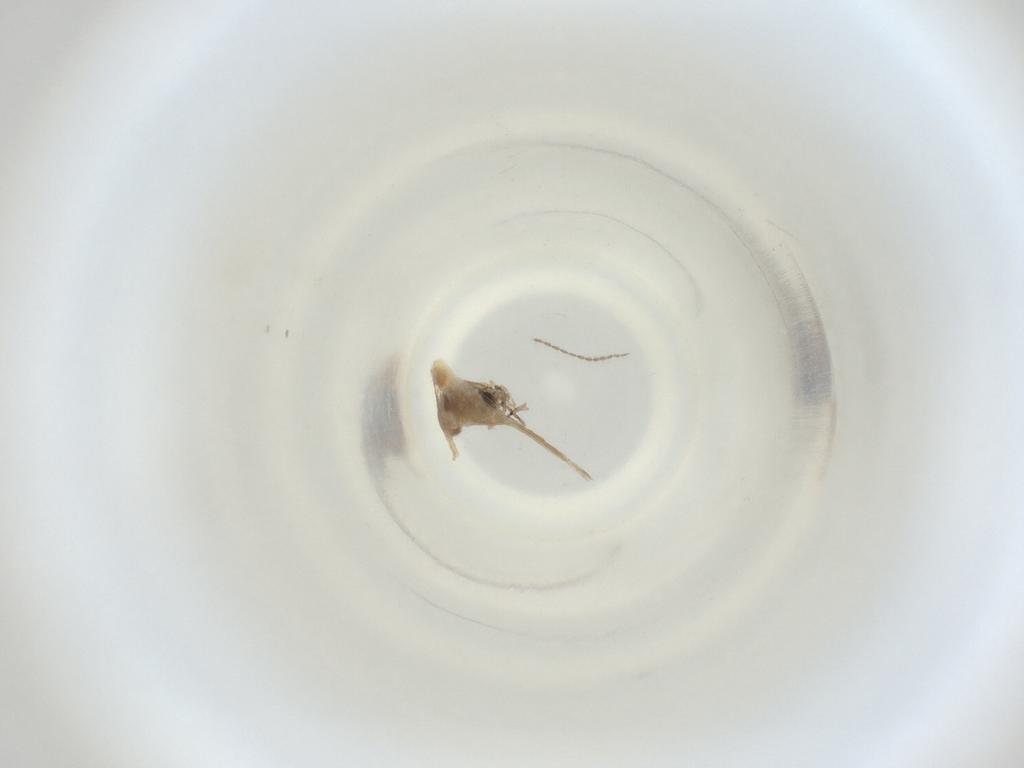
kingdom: Animalia
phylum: Arthropoda
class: Insecta
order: Diptera
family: Cecidomyiidae
